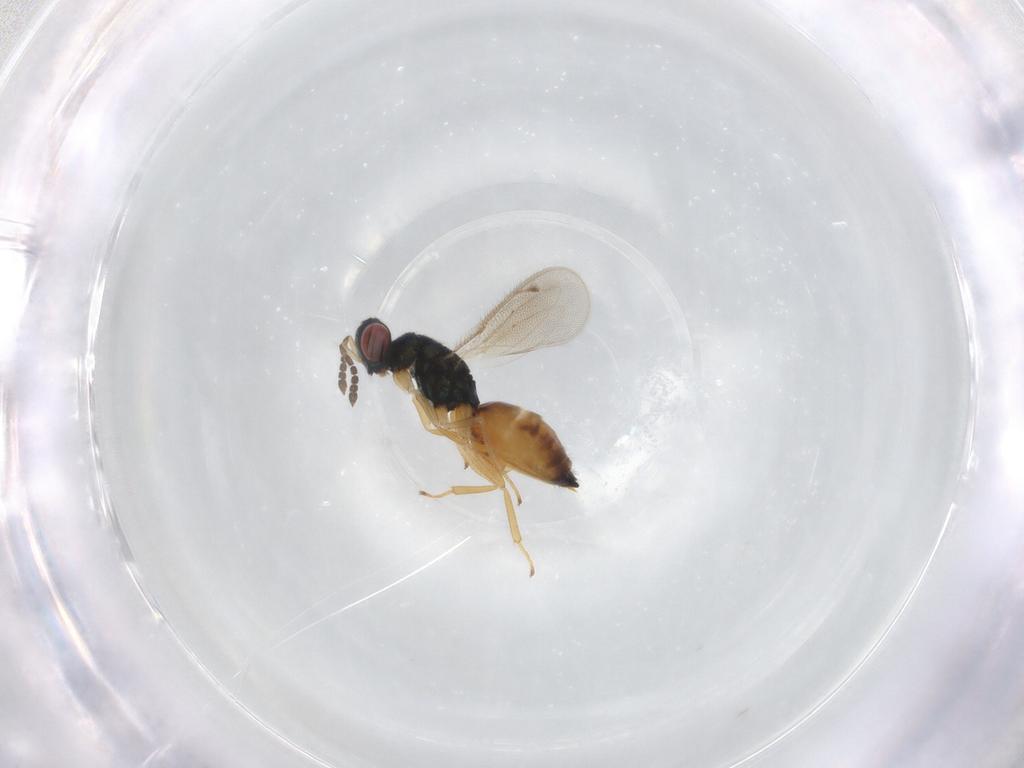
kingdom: Animalia
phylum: Arthropoda
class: Insecta
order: Hymenoptera
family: Eulophidae
